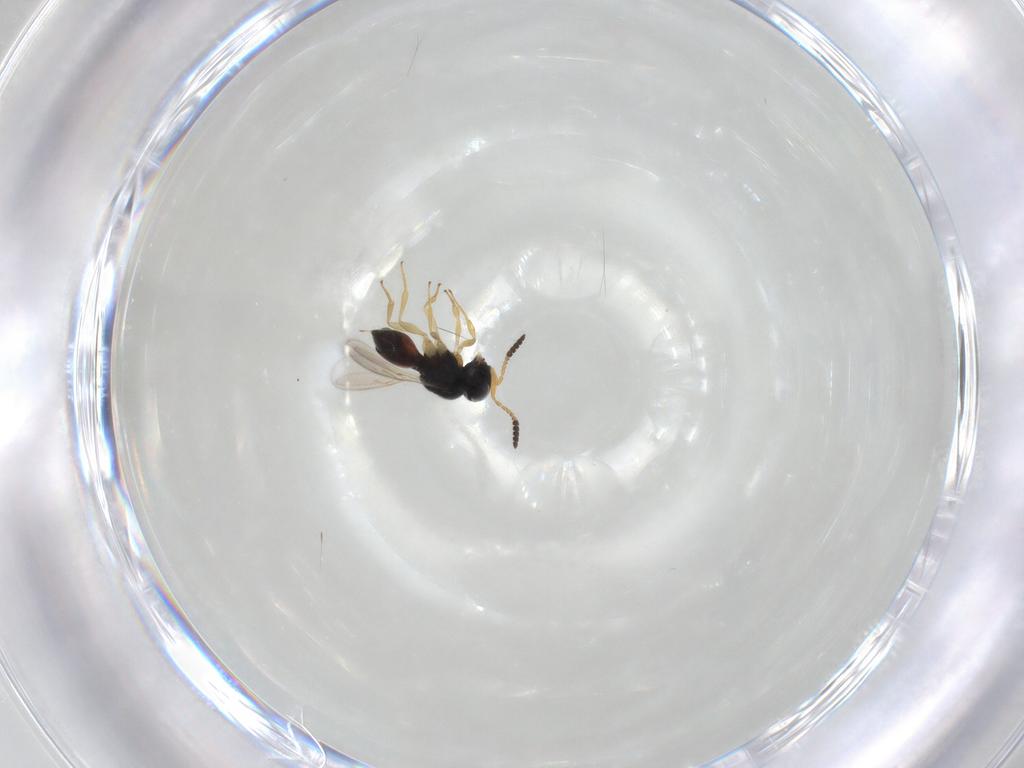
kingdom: Animalia
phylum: Arthropoda
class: Insecta
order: Hymenoptera
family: Scelionidae
